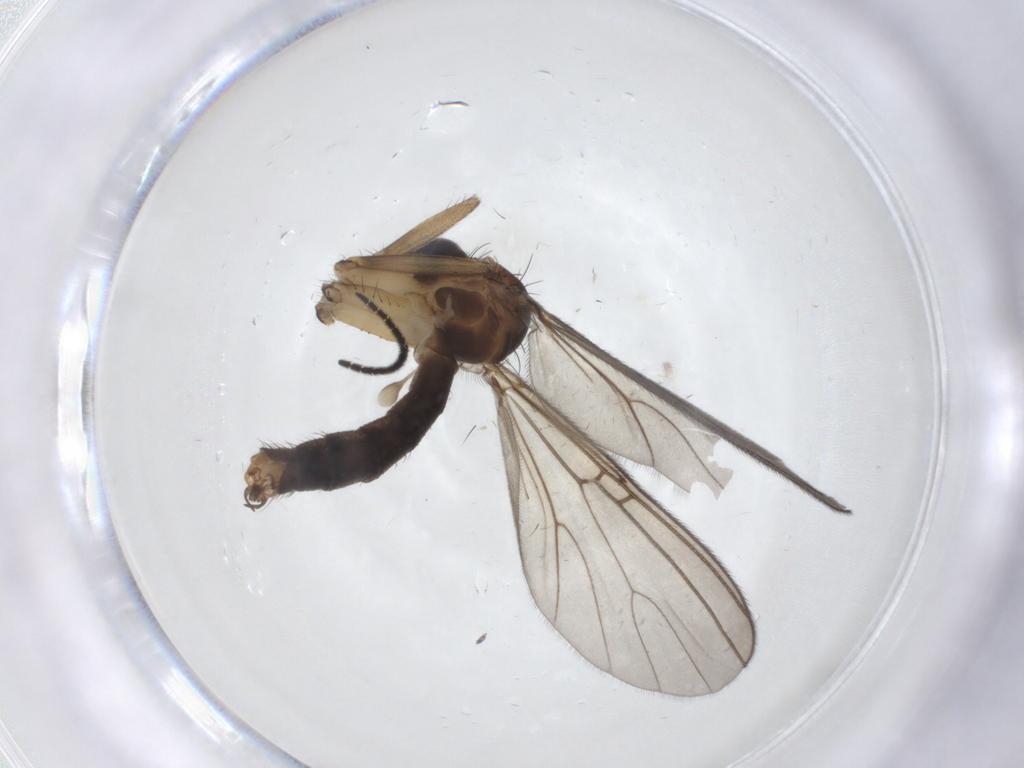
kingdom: Animalia
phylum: Arthropoda
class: Insecta
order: Diptera
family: Mycetophilidae
